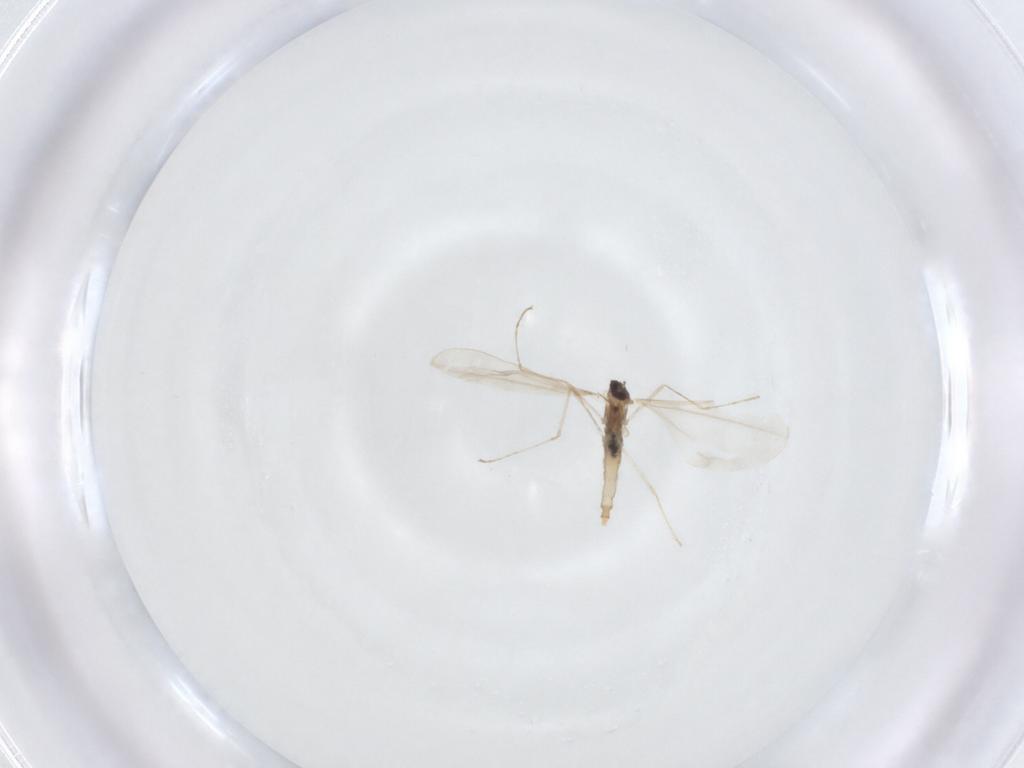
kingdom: Animalia
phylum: Arthropoda
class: Insecta
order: Diptera
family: Cecidomyiidae
